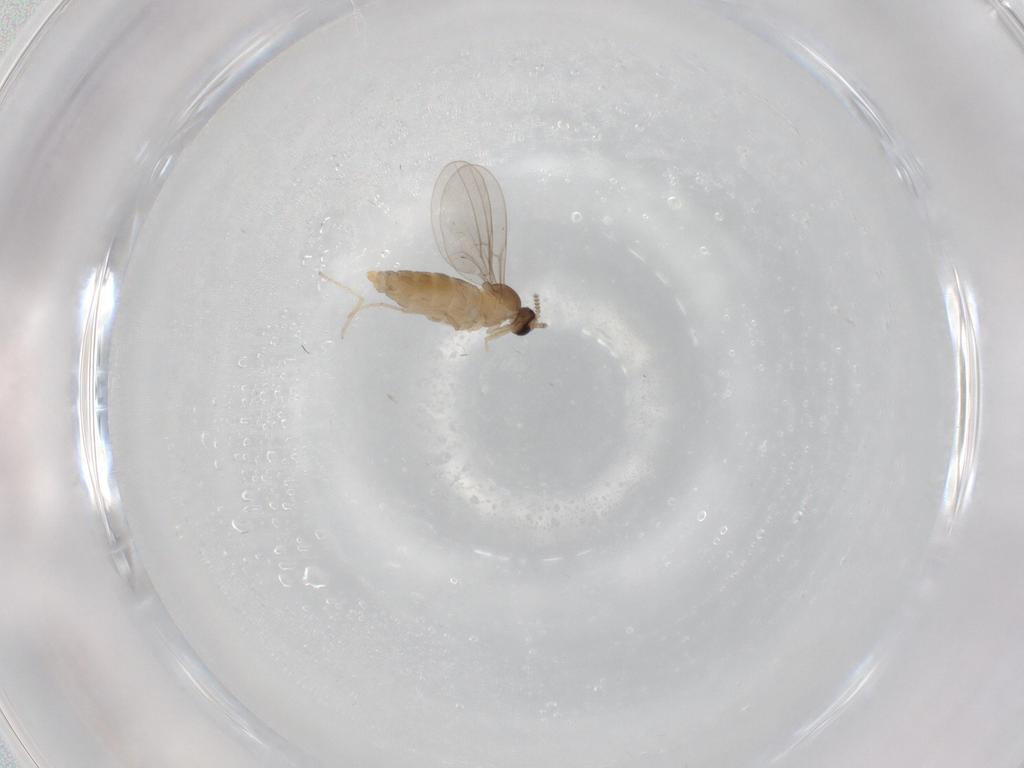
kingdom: Animalia
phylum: Arthropoda
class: Insecta
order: Diptera
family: Cecidomyiidae
